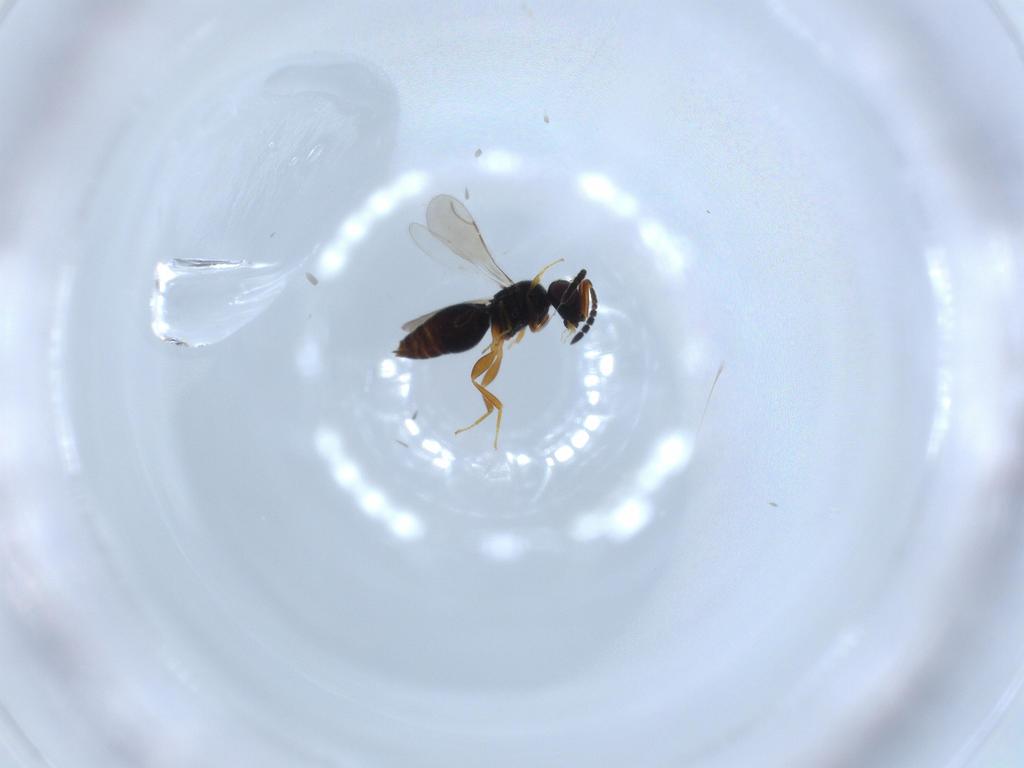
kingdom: Animalia
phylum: Arthropoda
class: Insecta
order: Hymenoptera
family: Ceraphronidae
